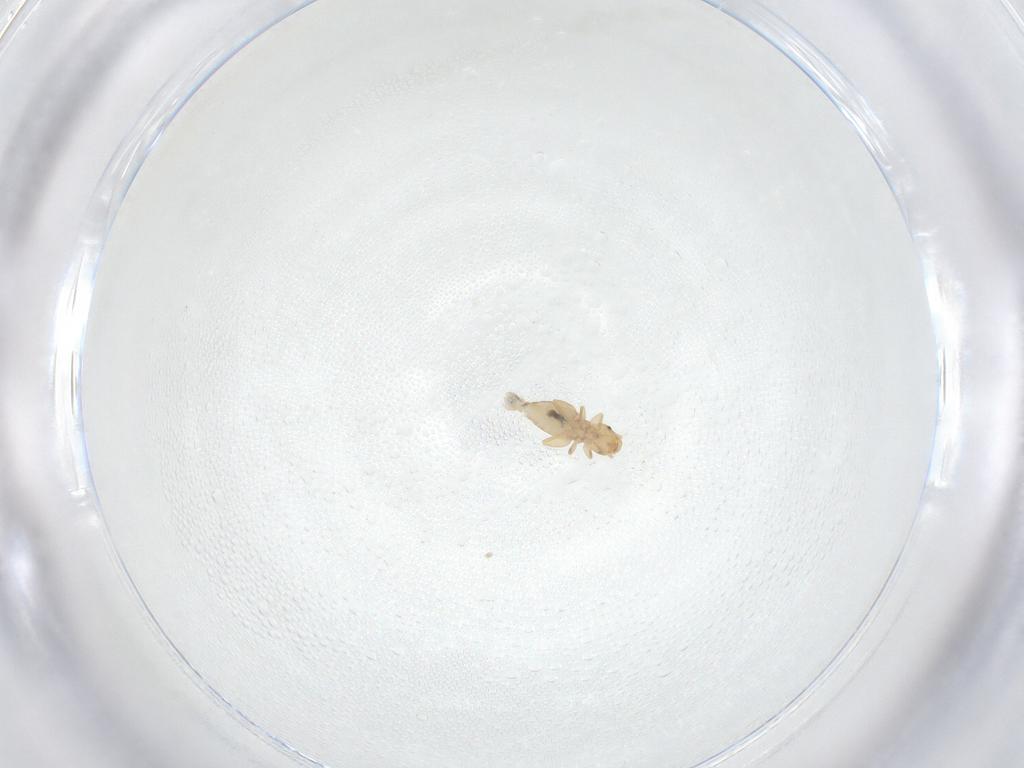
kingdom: Animalia
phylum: Arthropoda
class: Insecta
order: Psocodea
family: Liposcelididae
